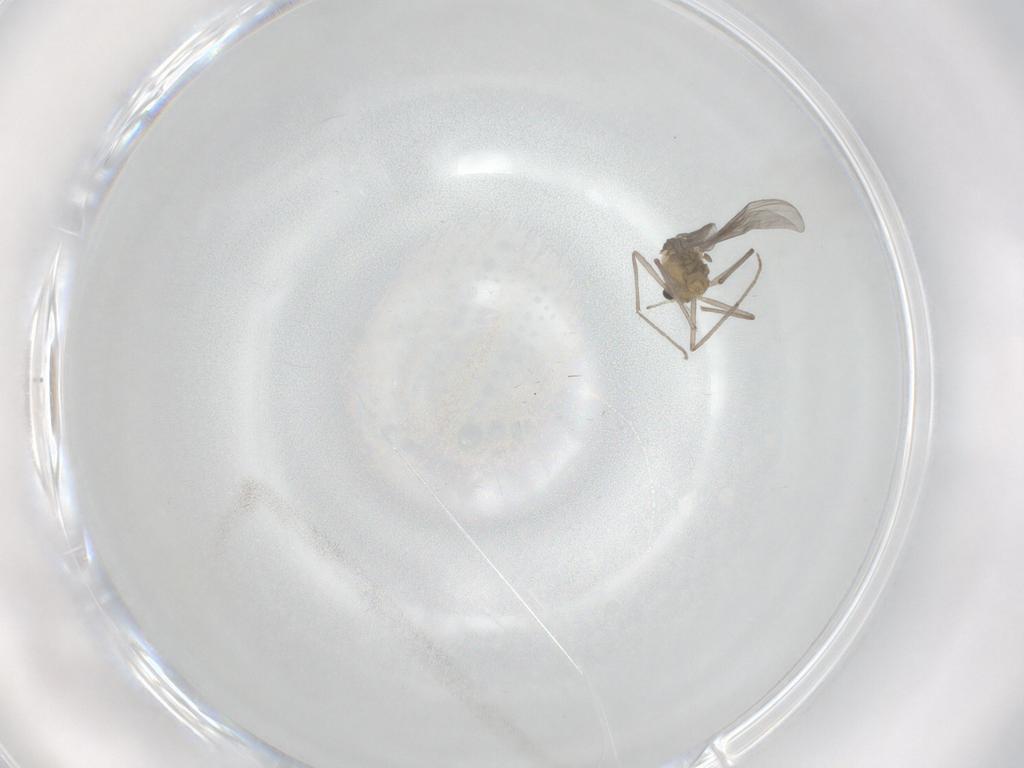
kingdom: Animalia
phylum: Arthropoda
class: Insecta
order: Diptera
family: Chironomidae
